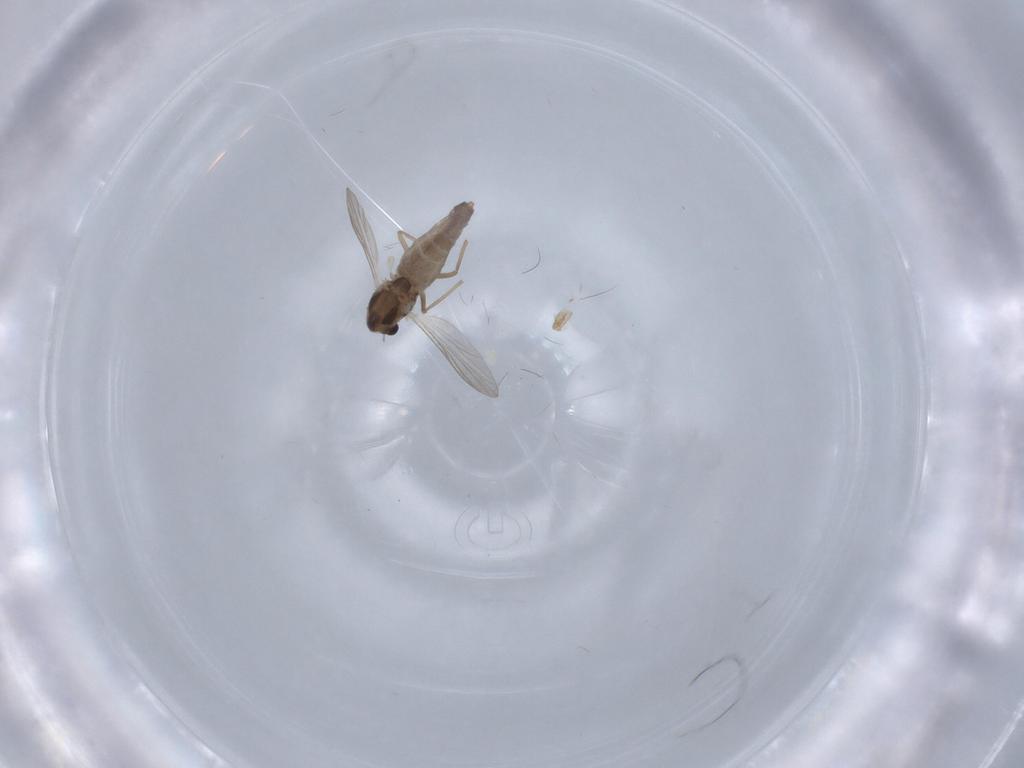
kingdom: Animalia
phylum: Arthropoda
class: Insecta
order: Diptera
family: Chironomidae
